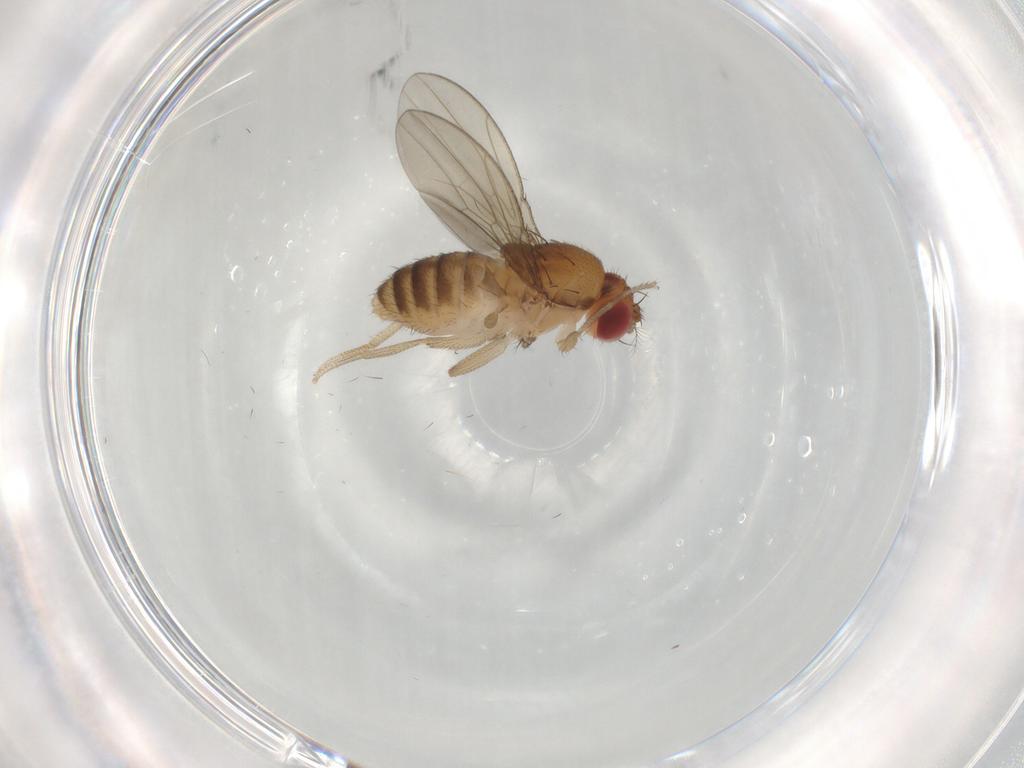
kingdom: Animalia
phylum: Arthropoda
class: Insecta
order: Diptera
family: Drosophilidae
